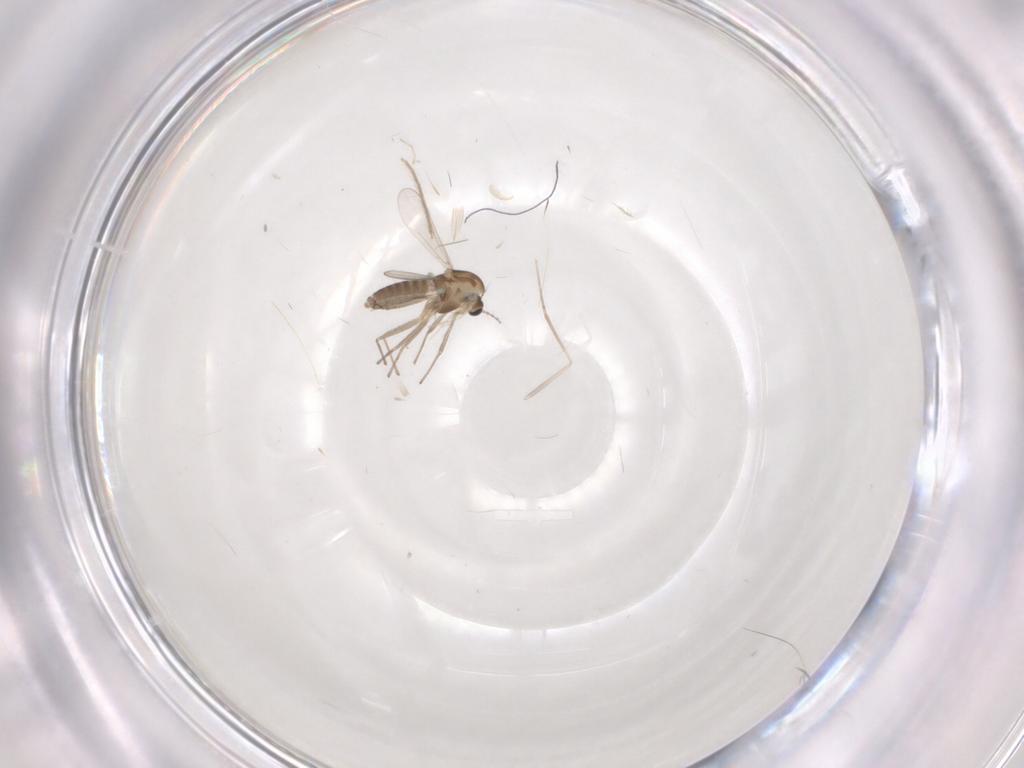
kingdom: Animalia
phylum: Arthropoda
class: Insecta
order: Diptera
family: Chironomidae
